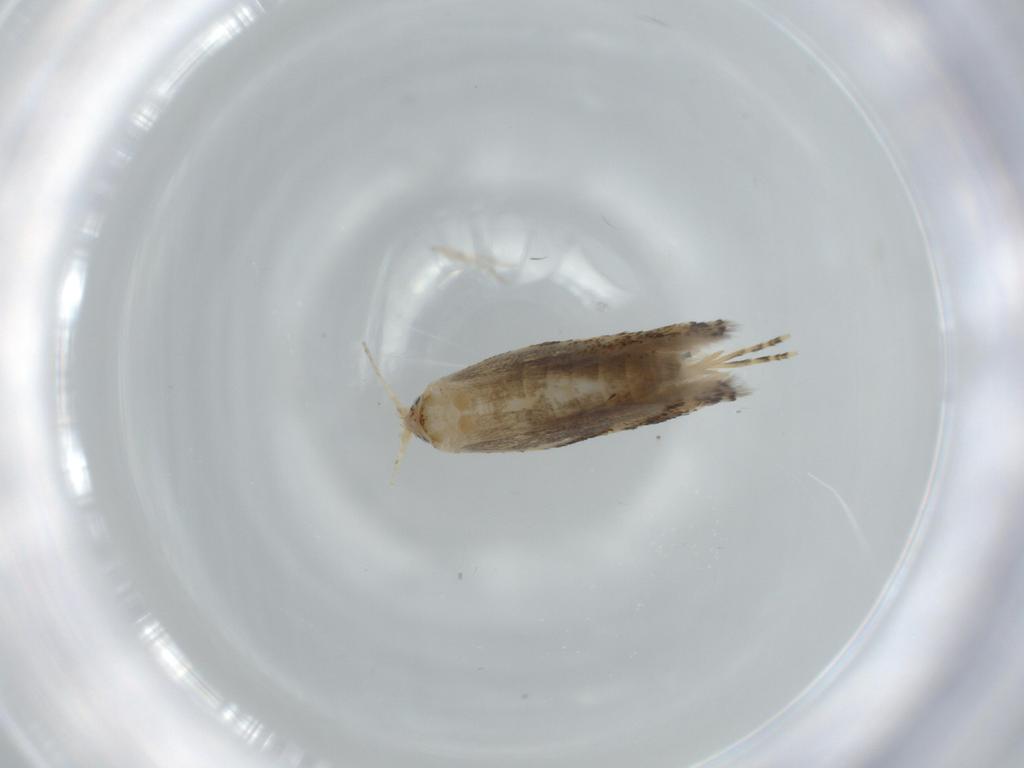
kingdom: Animalia
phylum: Arthropoda
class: Insecta
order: Lepidoptera
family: Bucculatricidae
